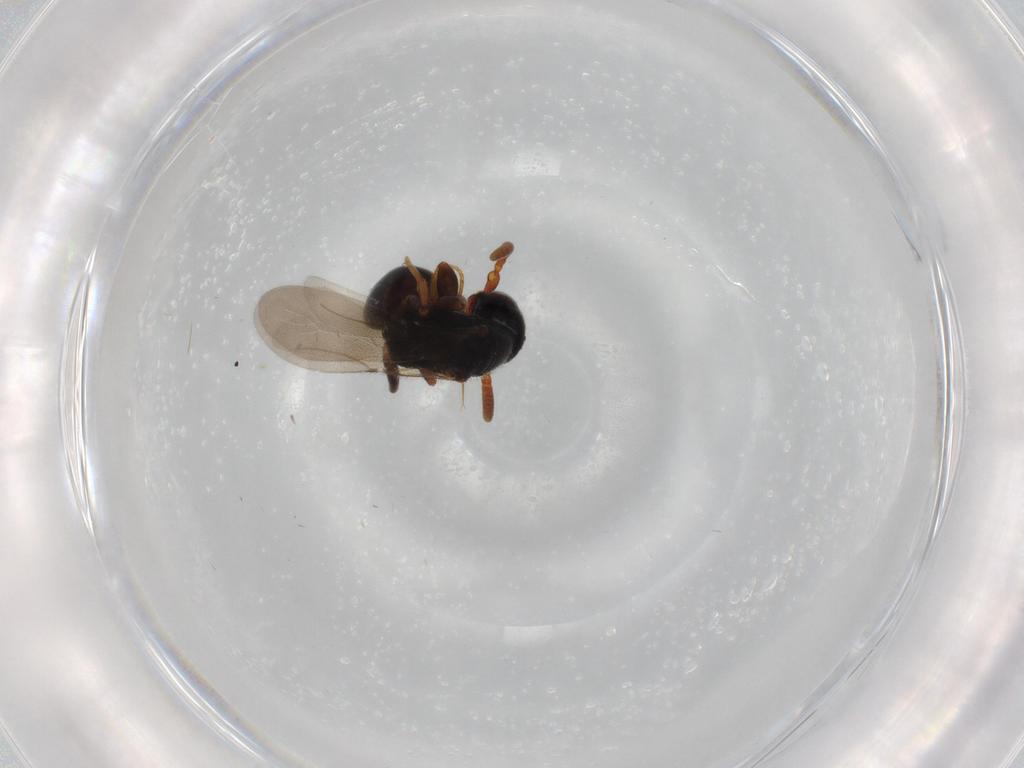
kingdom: Animalia
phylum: Arthropoda
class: Insecta
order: Hymenoptera
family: Bethylidae
